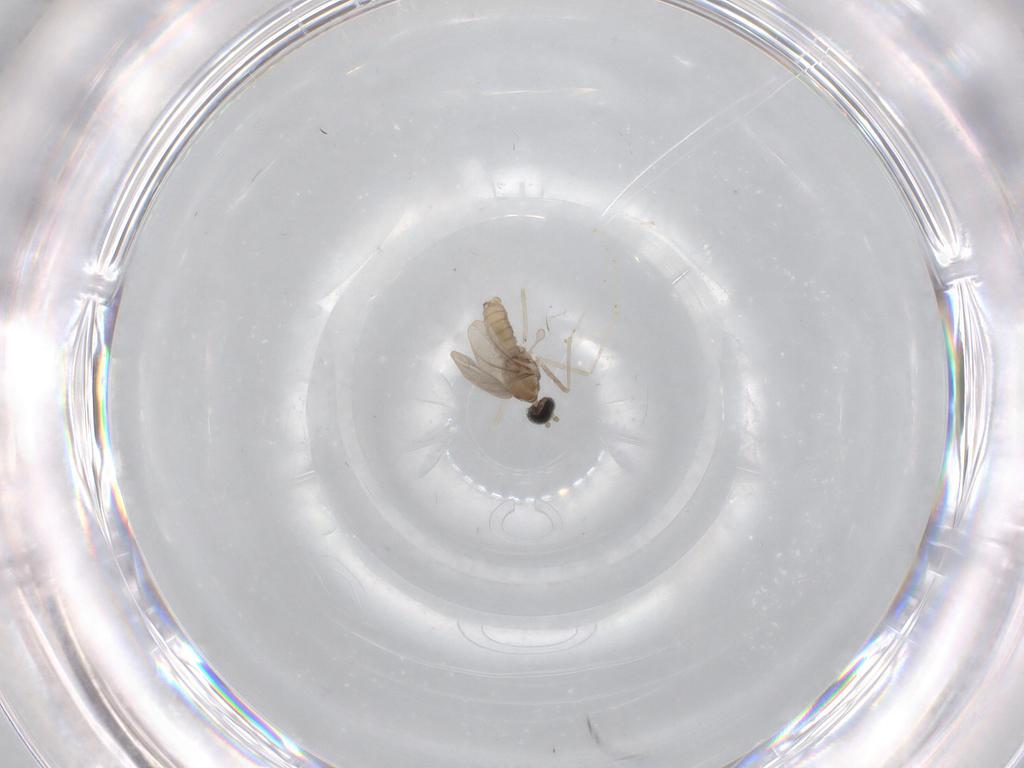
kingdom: Animalia
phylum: Arthropoda
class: Insecta
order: Diptera
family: Cecidomyiidae
